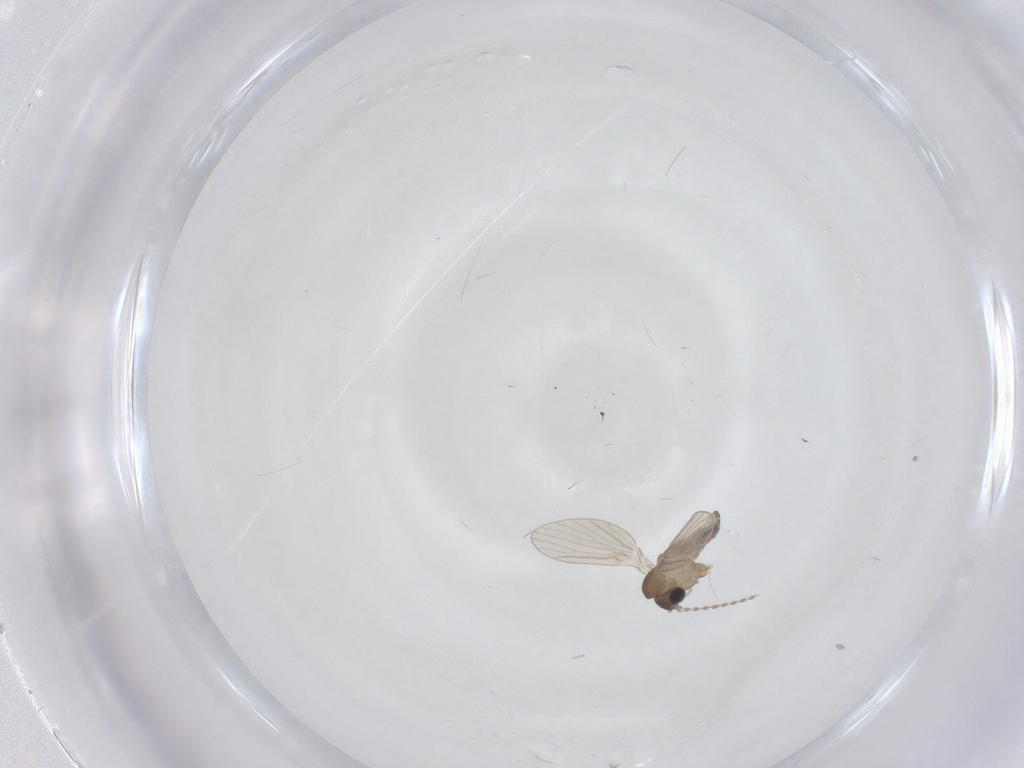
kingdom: Animalia
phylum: Arthropoda
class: Insecta
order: Diptera
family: Psychodidae
